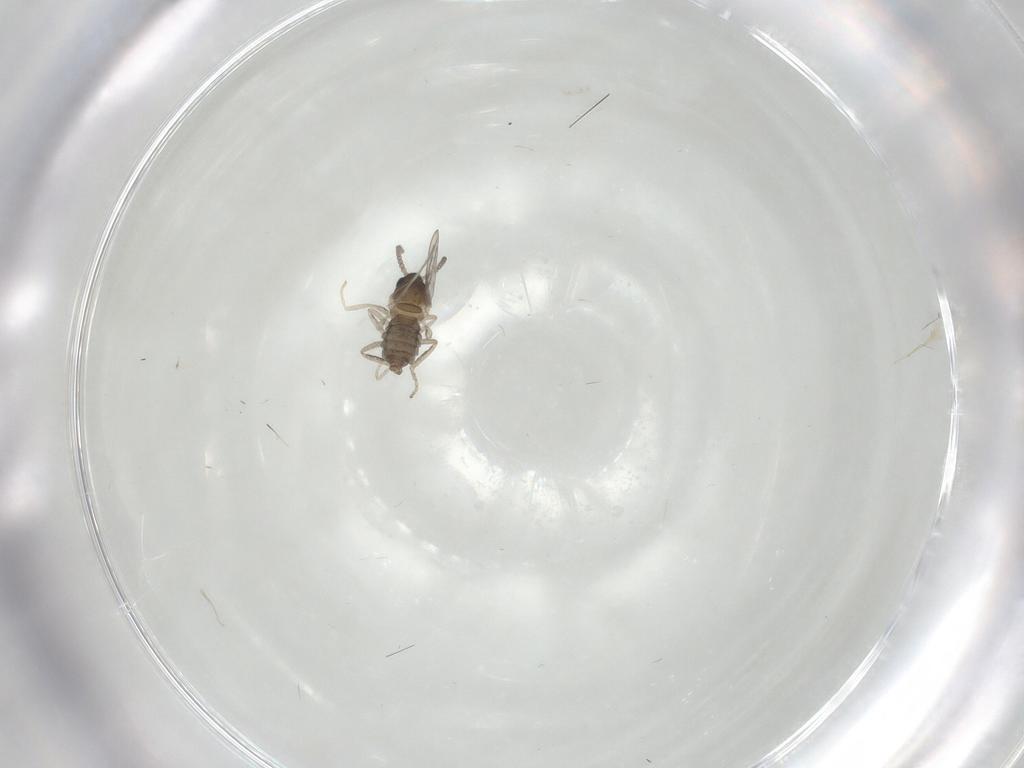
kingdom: Animalia
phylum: Arthropoda
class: Insecta
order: Diptera
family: Cecidomyiidae
